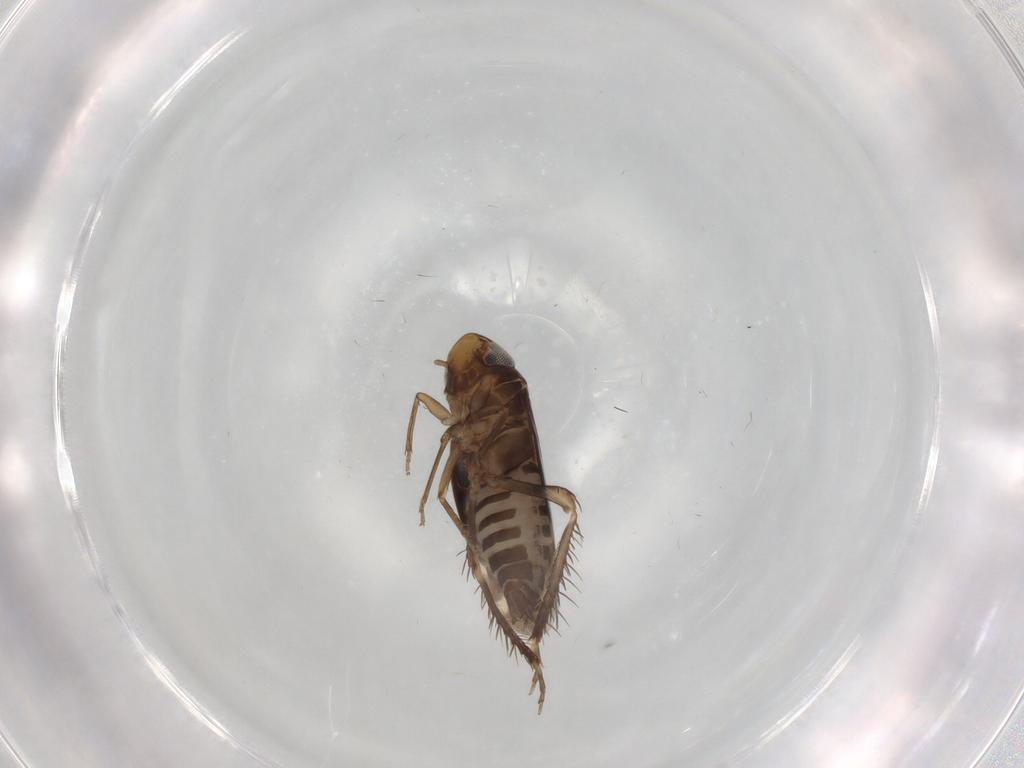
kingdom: Animalia
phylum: Arthropoda
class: Insecta
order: Hemiptera
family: Cicadellidae
